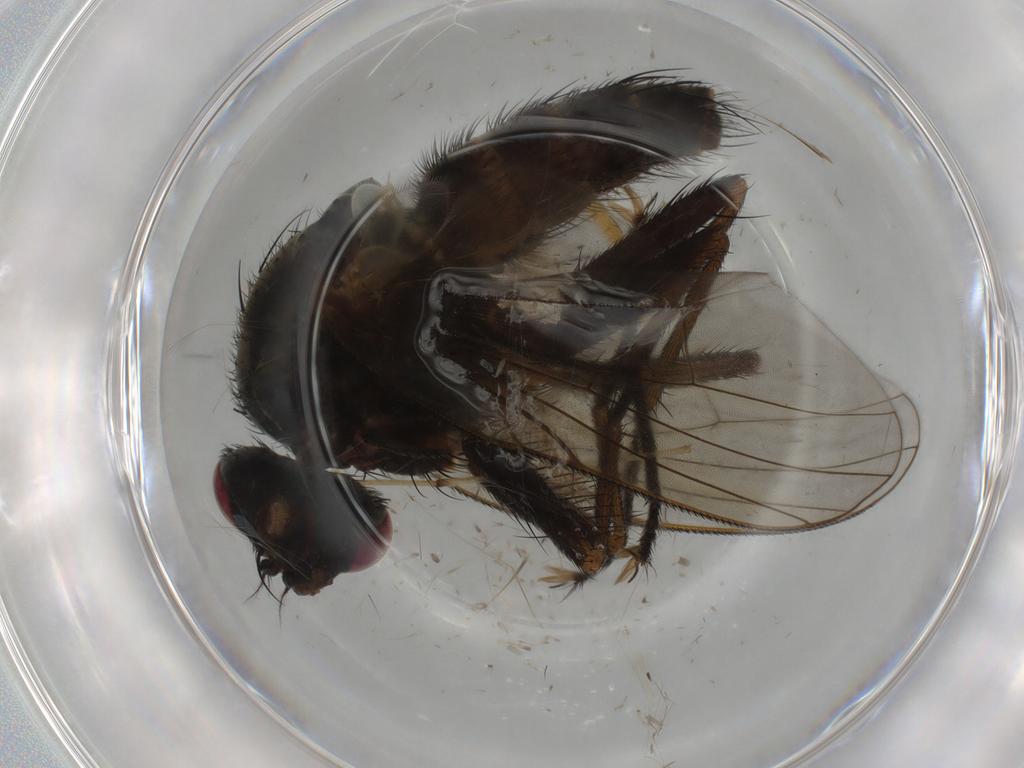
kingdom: Animalia
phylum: Arthropoda
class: Insecta
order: Diptera
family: Tachinidae
